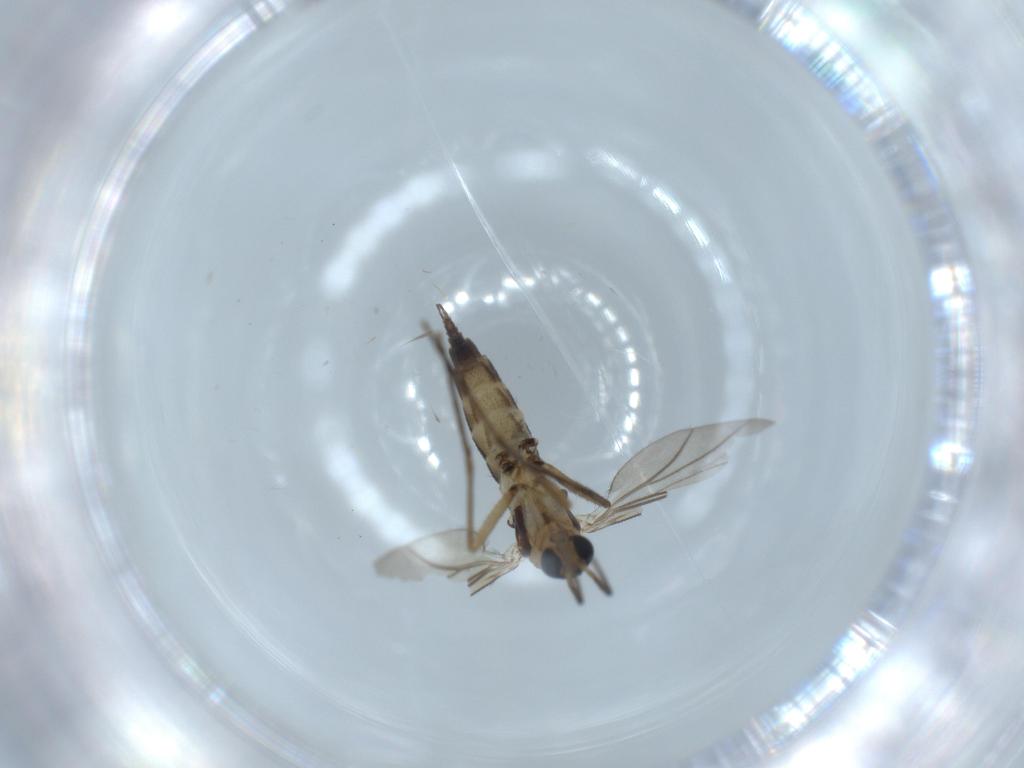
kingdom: Animalia
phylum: Arthropoda
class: Insecta
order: Diptera
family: Sciaridae
